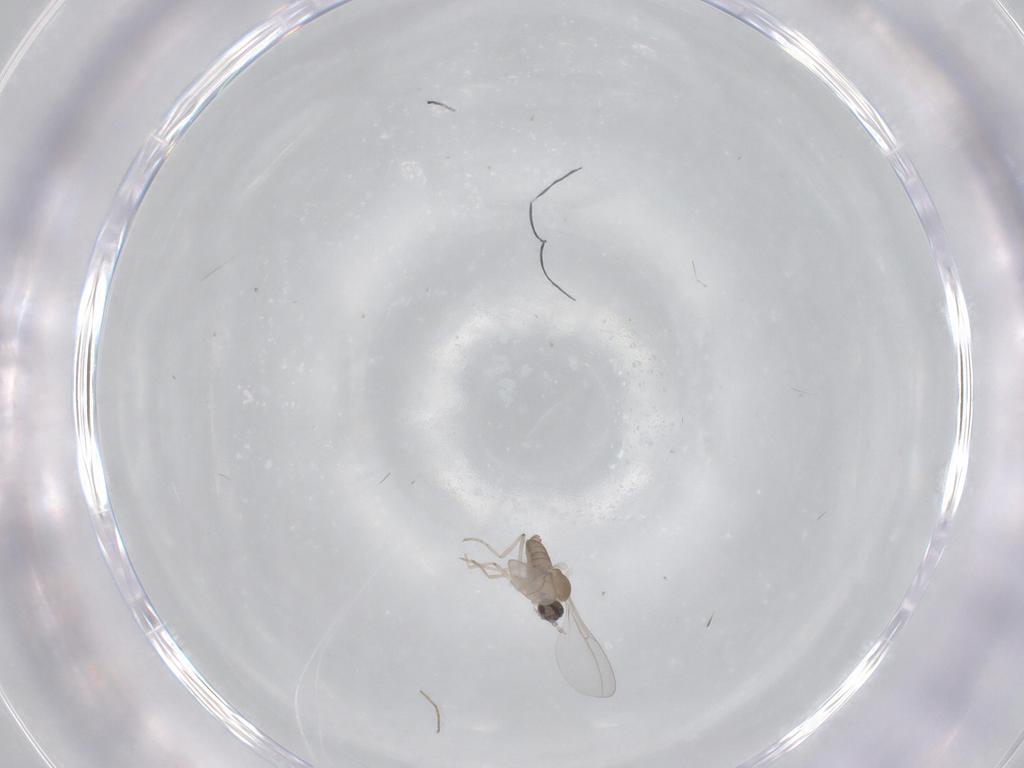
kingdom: Animalia
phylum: Arthropoda
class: Insecta
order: Diptera
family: Cecidomyiidae
